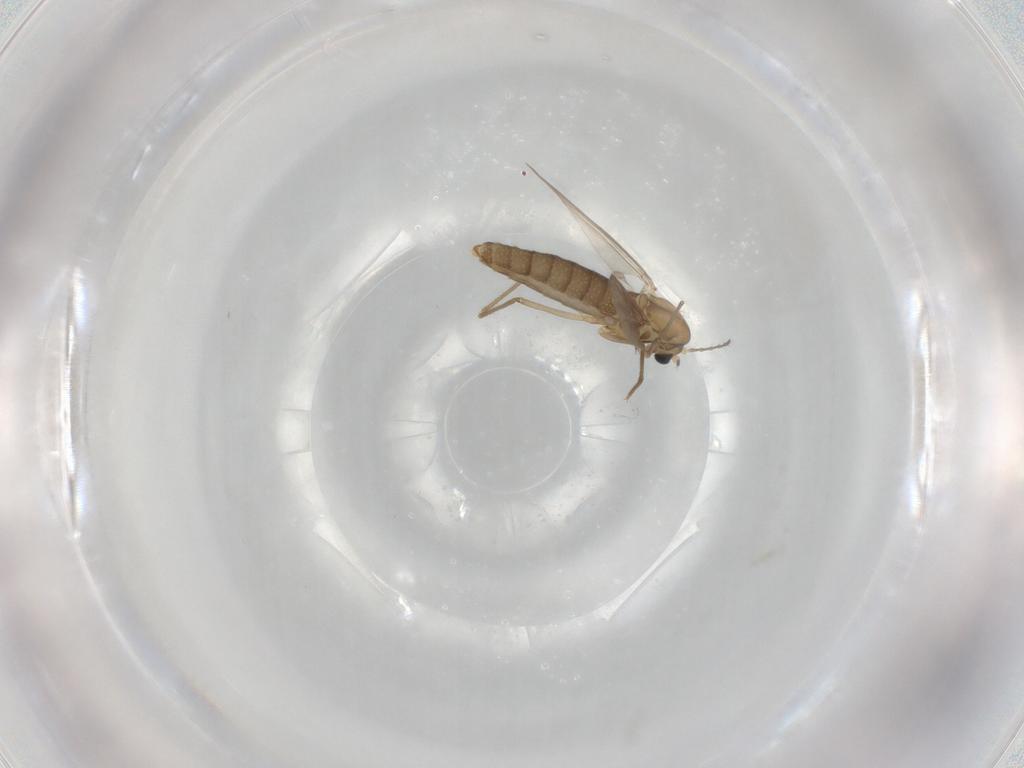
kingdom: Animalia
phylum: Arthropoda
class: Insecta
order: Diptera
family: Chironomidae
